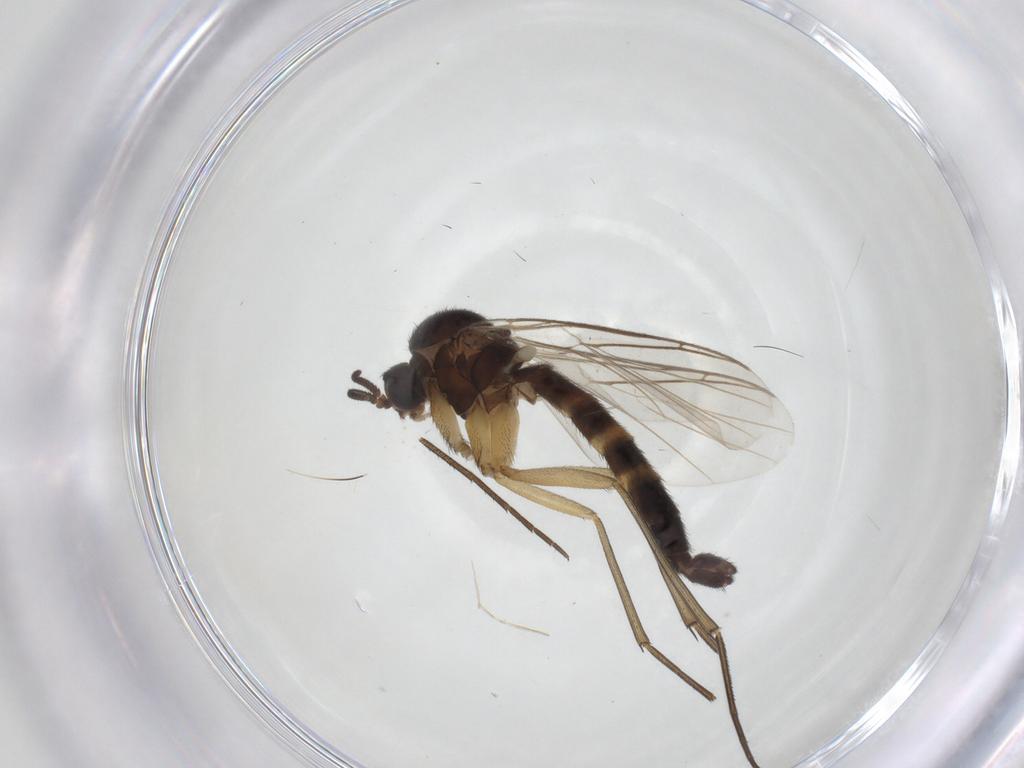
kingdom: Animalia
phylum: Arthropoda
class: Insecta
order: Diptera
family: Keroplatidae
